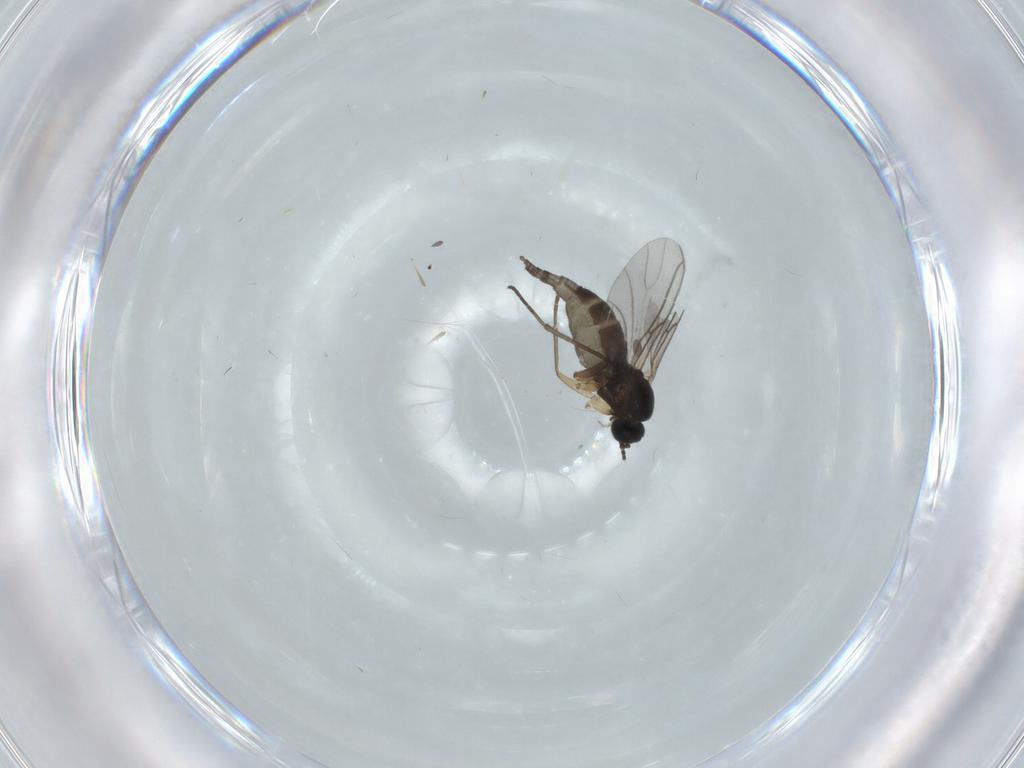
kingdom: Animalia
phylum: Arthropoda
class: Insecta
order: Diptera
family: Sciaridae
